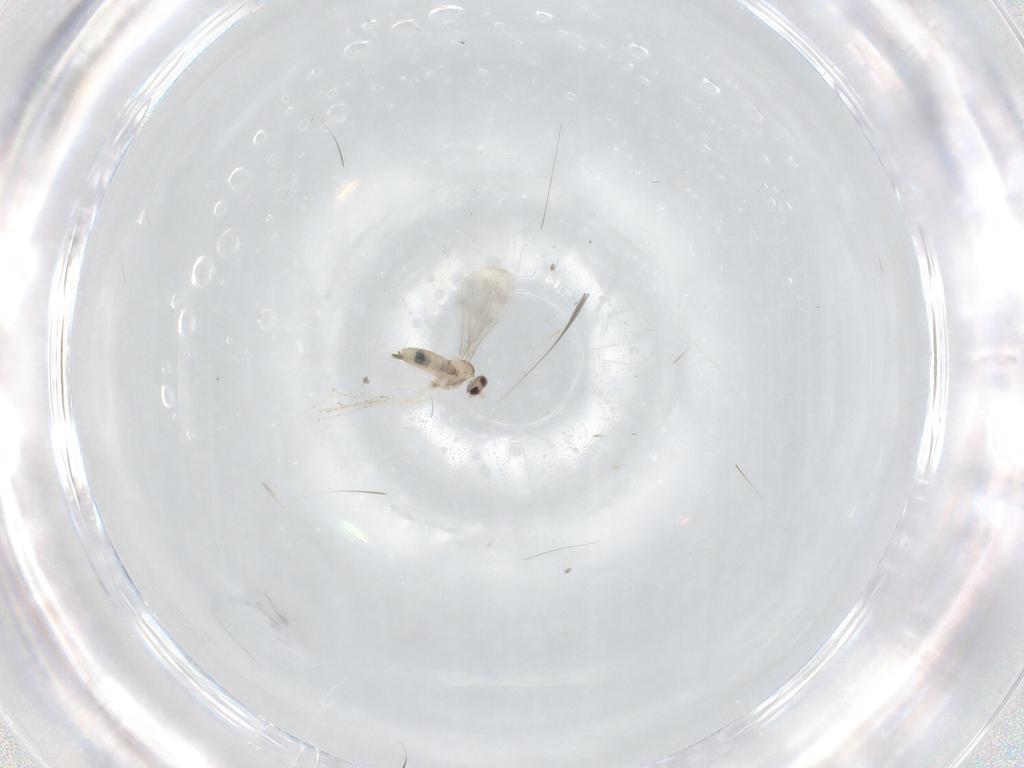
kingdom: Animalia
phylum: Arthropoda
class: Insecta
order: Diptera
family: Cecidomyiidae
